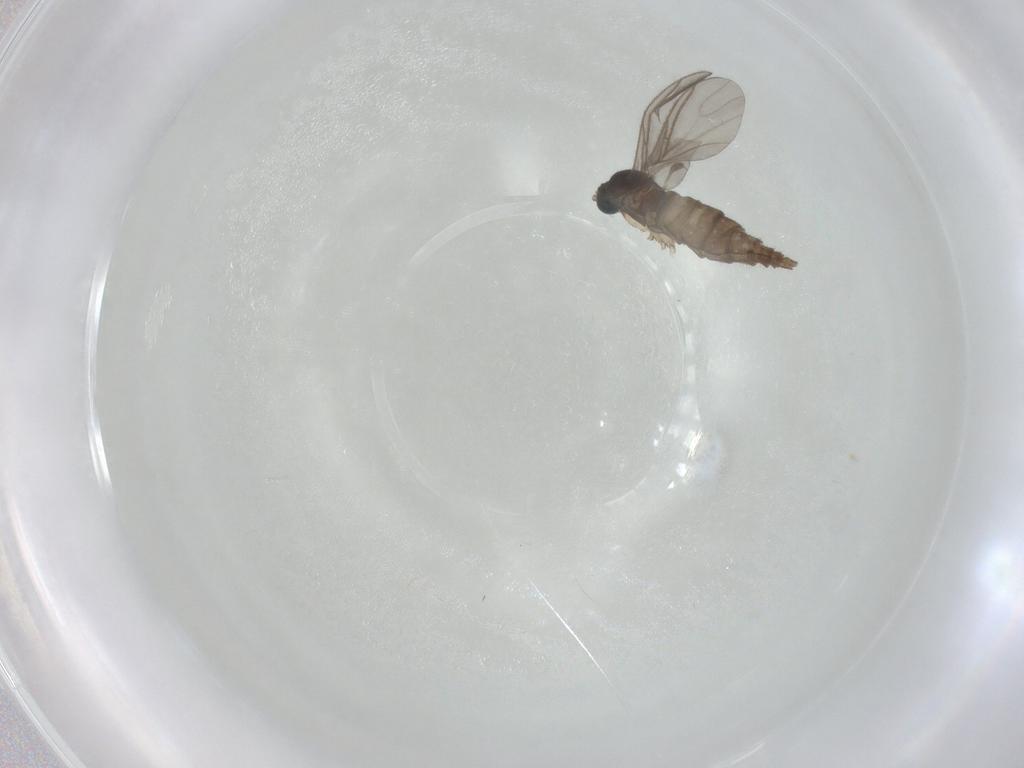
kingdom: Animalia
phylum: Arthropoda
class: Insecta
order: Diptera
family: Sciaridae
